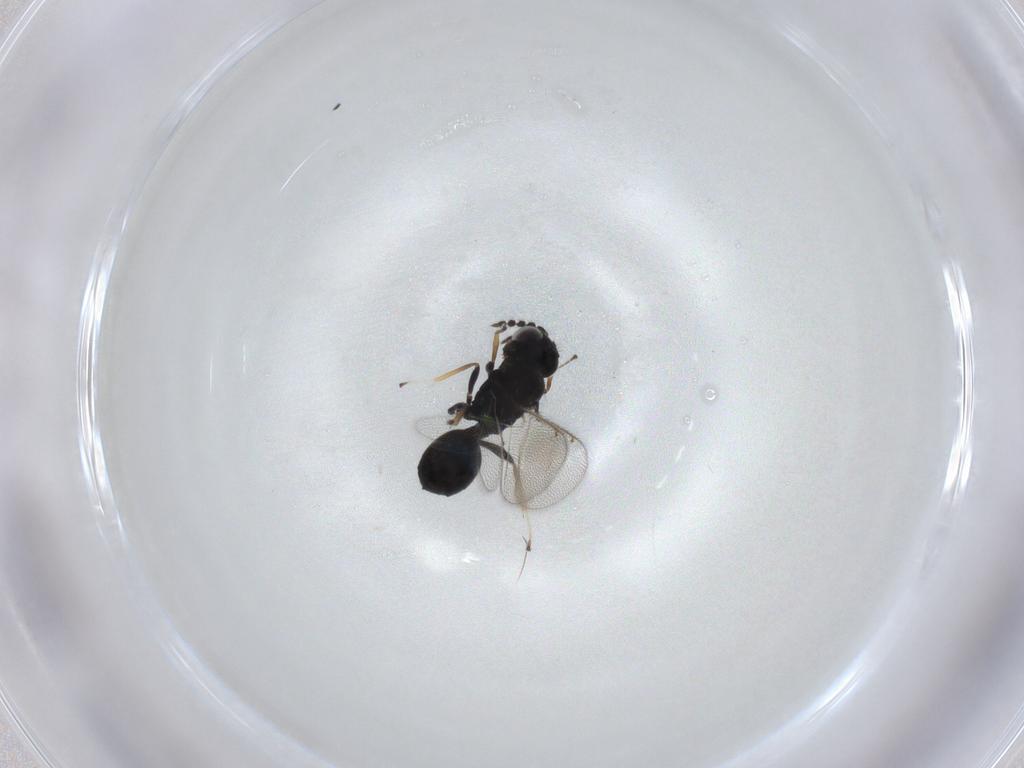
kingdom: Animalia
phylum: Arthropoda
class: Insecta
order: Hymenoptera
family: Eulophidae
